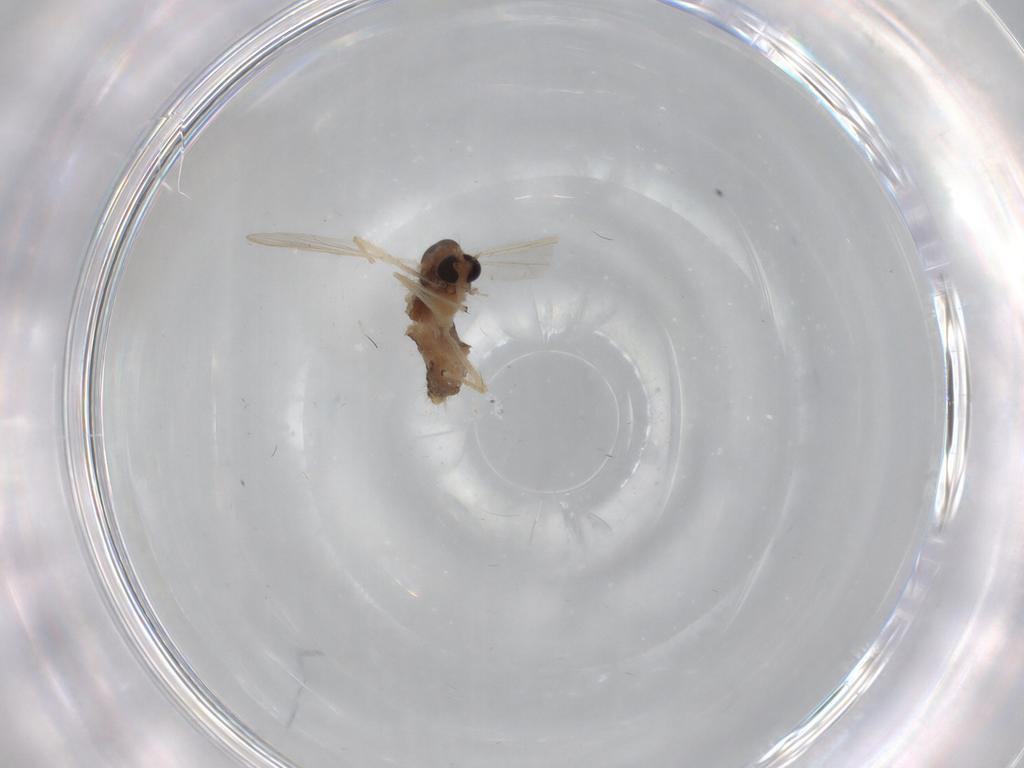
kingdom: Animalia
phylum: Arthropoda
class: Insecta
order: Diptera
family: Chironomidae
